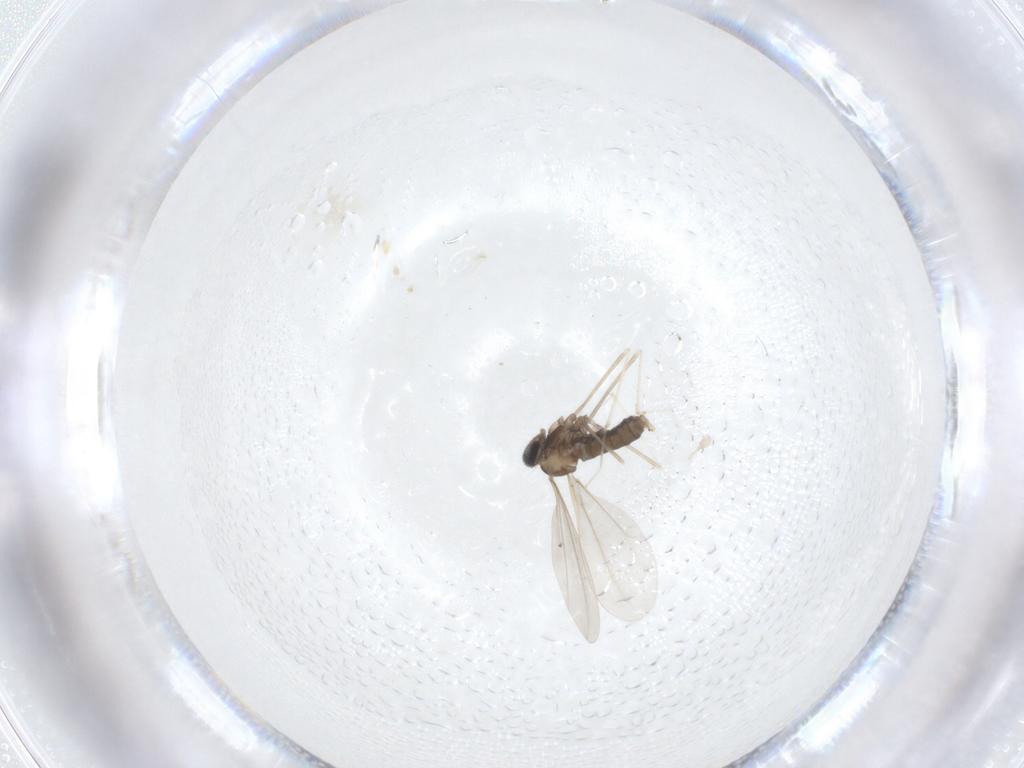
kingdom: Animalia
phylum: Arthropoda
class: Insecta
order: Diptera
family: Cecidomyiidae
